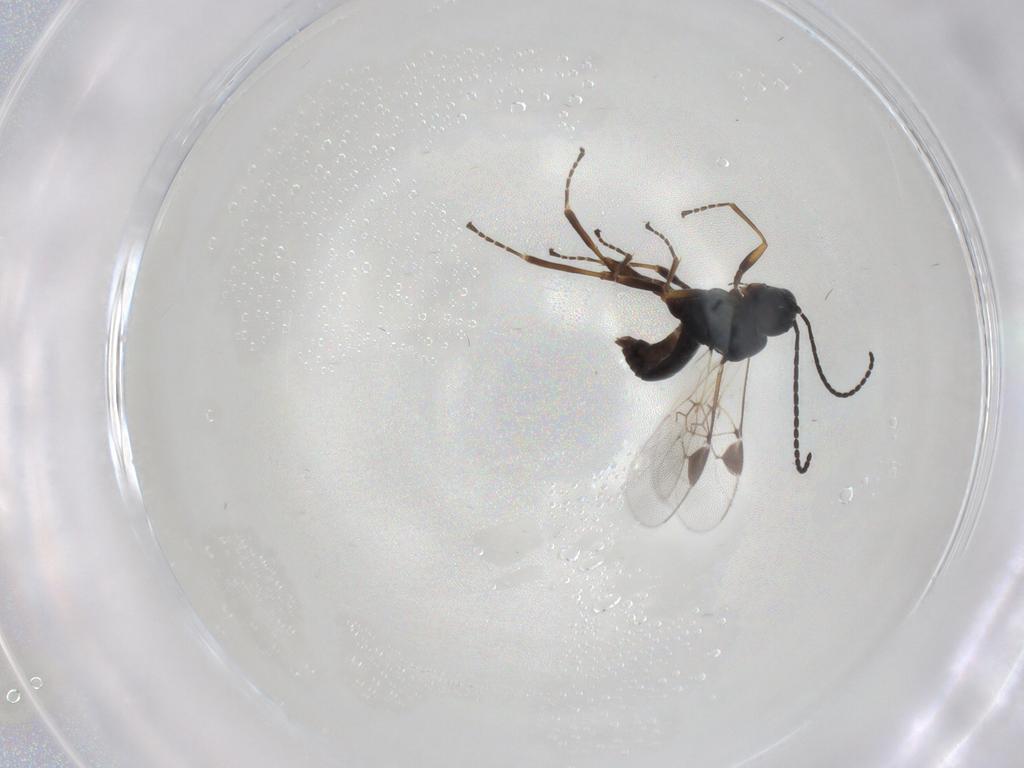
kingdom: Animalia
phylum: Arthropoda
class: Insecta
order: Hymenoptera
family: Braconidae
